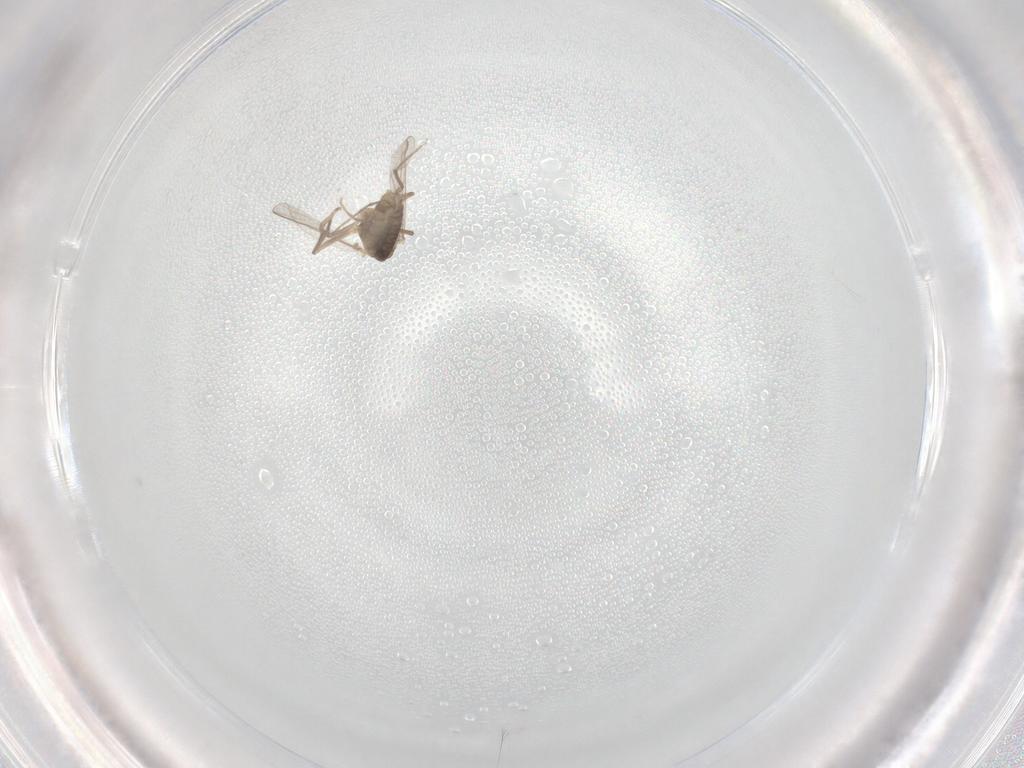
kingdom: Animalia
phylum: Arthropoda
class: Insecta
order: Diptera
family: Chironomidae
